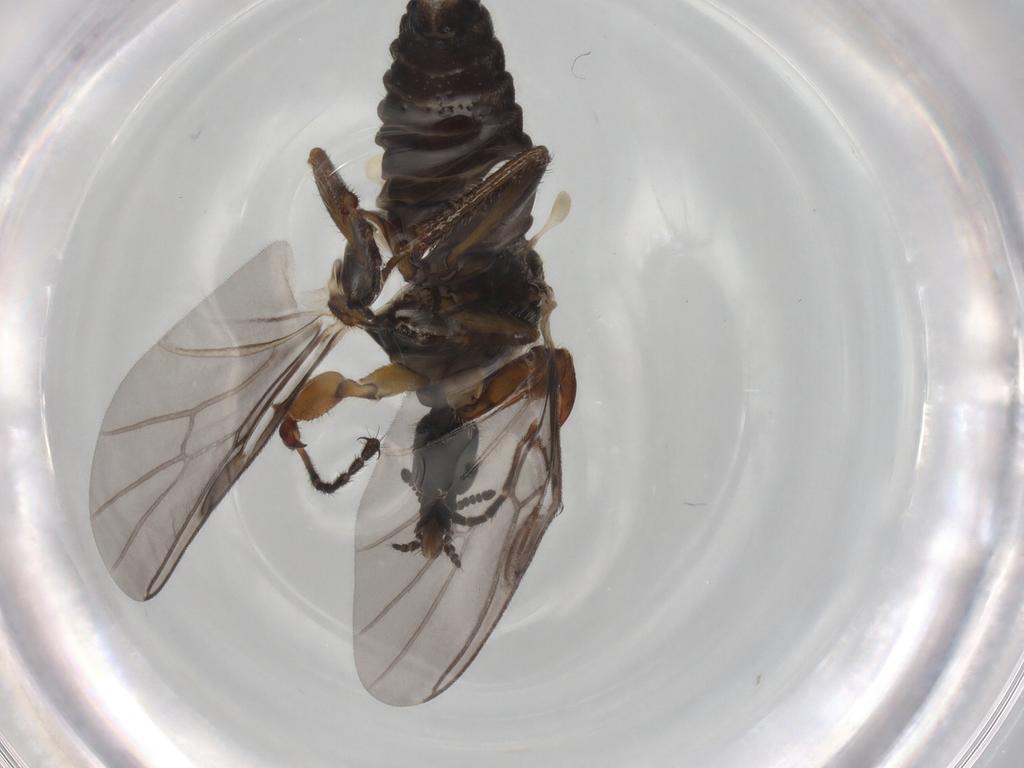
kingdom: Animalia
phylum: Arthropoda
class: Insecta
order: Diptera
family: Bibionidae
